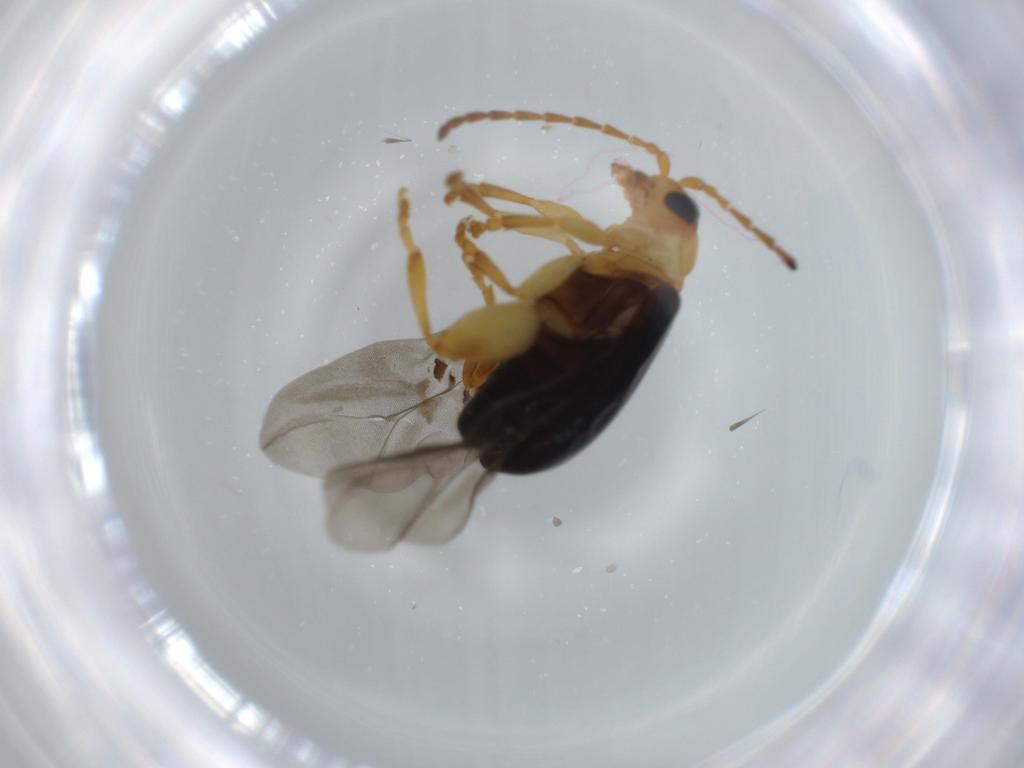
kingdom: Animalia
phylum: Arthropoda
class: Insecta
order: Coleoptera
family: Chrysomelidae
